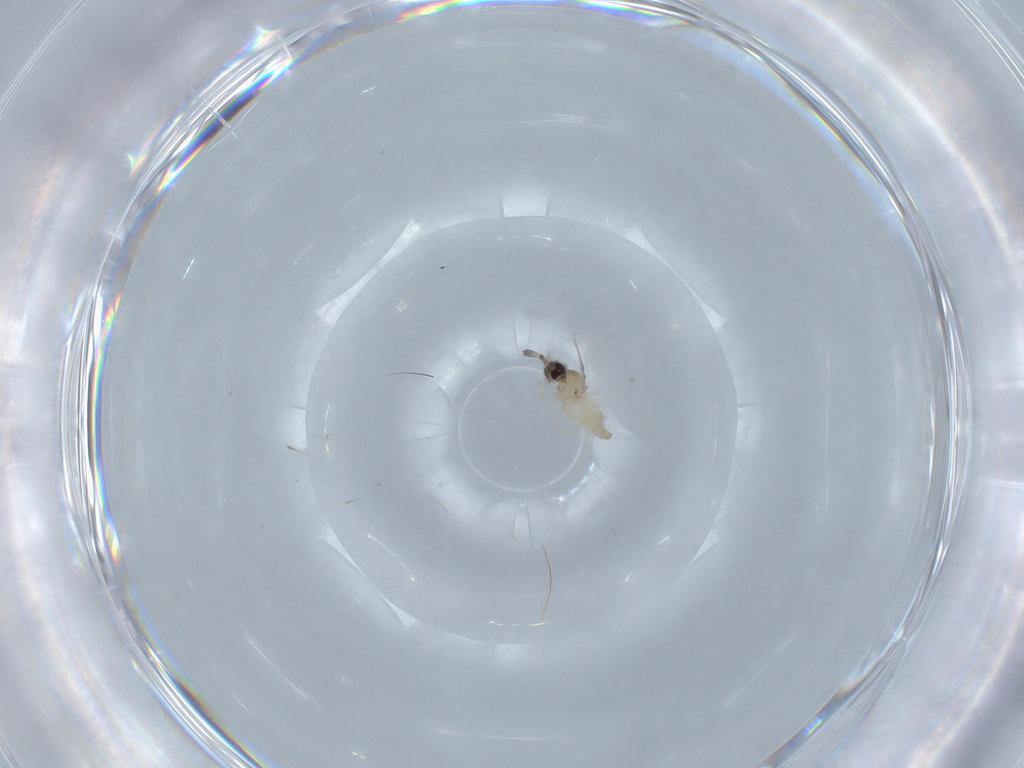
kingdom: Animalia
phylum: Arthropoda
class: Insecta
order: Diptera
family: Cecidomyiidae
